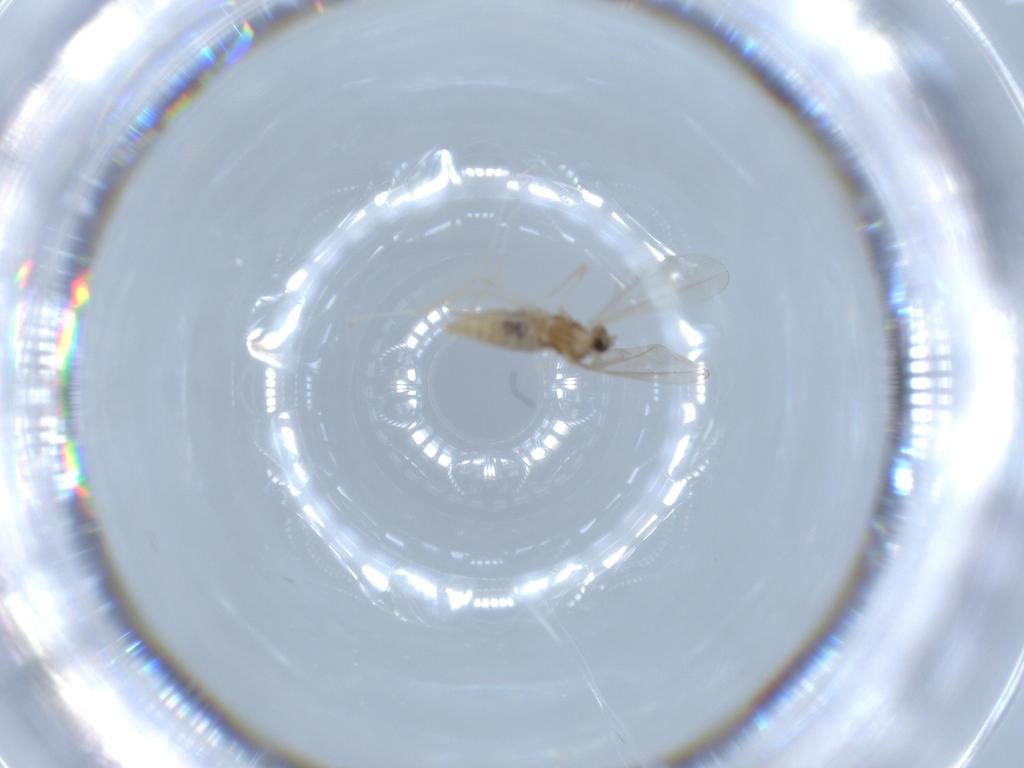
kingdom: Animalia
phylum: Arthropoda
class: Insecta
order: Diptera
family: Cecidomyiidae
